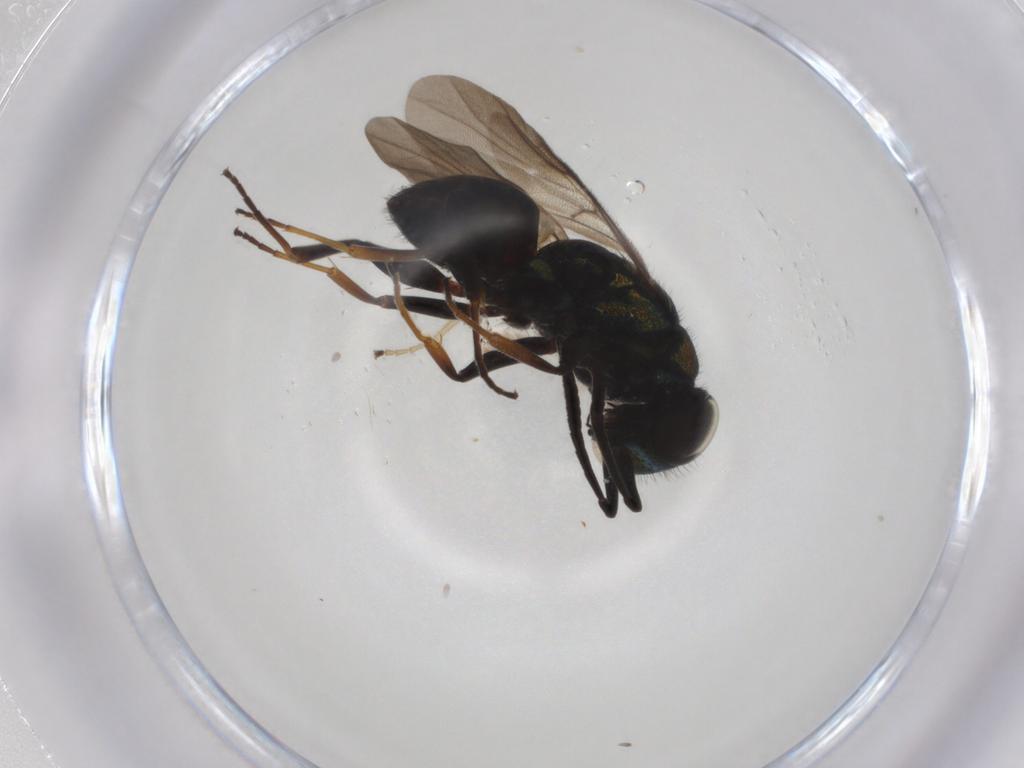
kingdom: Animalia
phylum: Arthropoda
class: Insecta
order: Hymenoptera
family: Chrysididae
